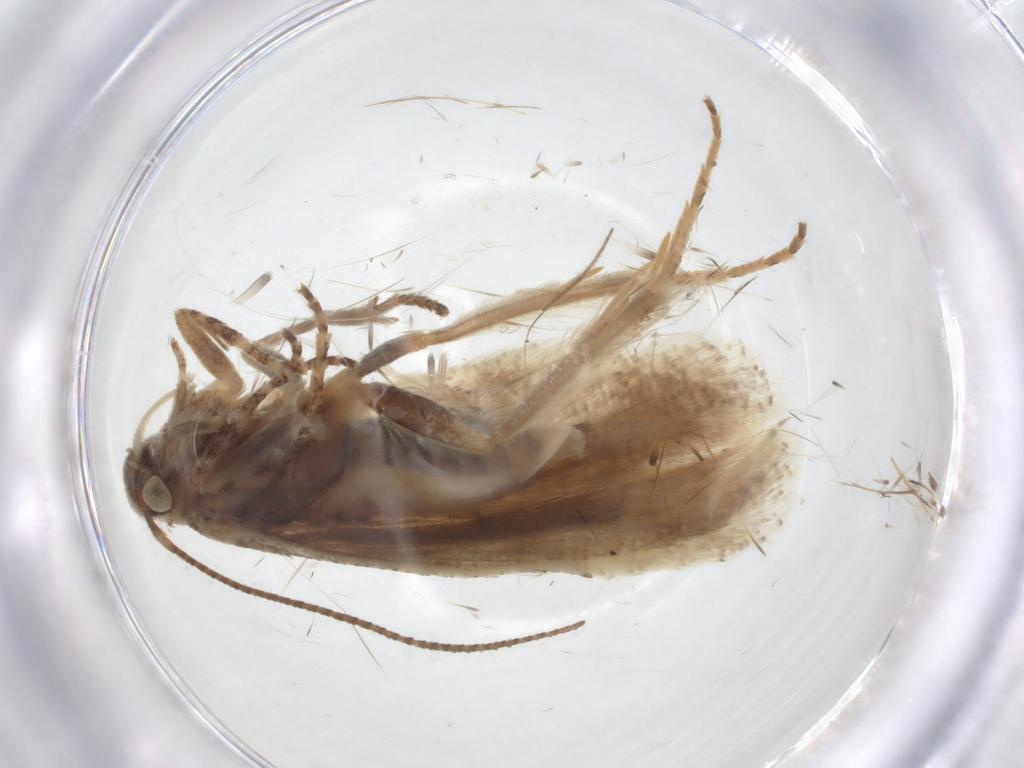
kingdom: Animalia
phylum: Arthropoda
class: Insecta
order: Lepidoptera
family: Gelechiidae
